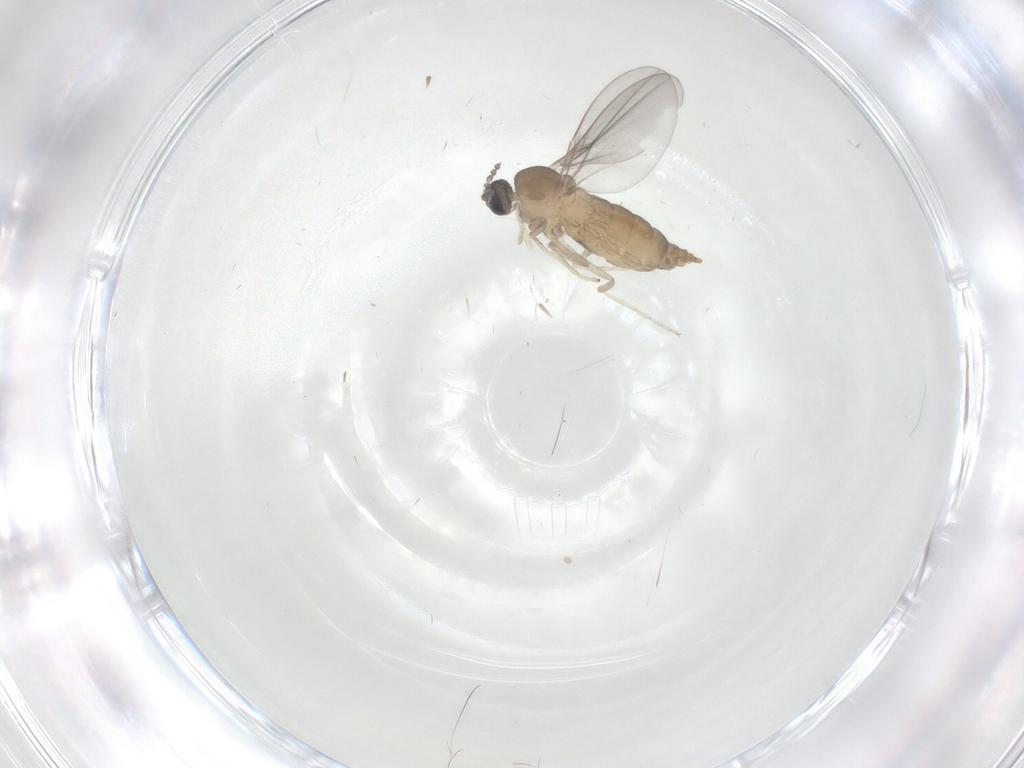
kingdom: Animalia
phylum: Arthropoda
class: Insecta
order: Diptera
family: Cecidomyiidae
